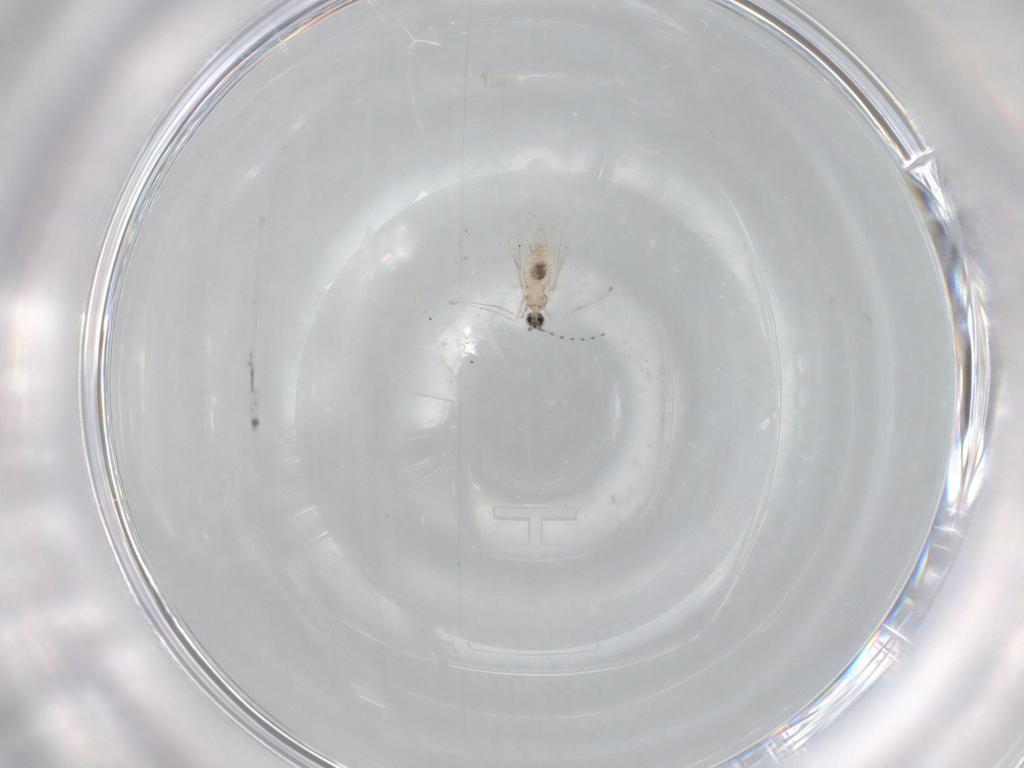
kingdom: Animalia
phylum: Arthropoda
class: Insecta
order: Diptera
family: Cecidomyiidae
